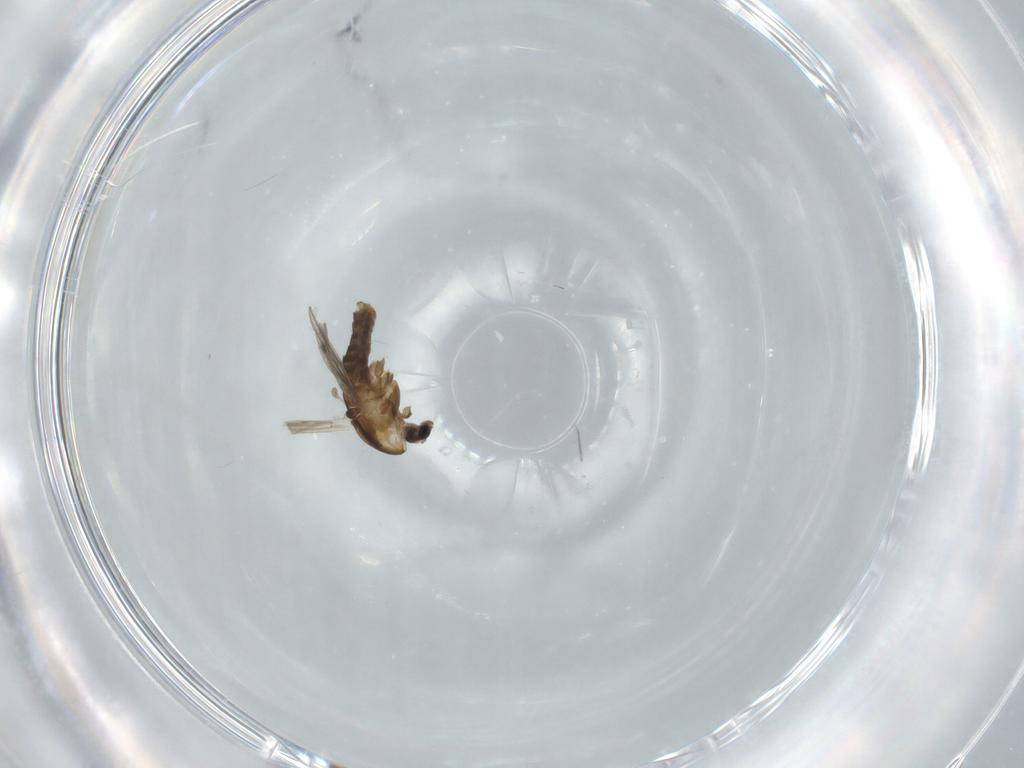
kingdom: Animalia
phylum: Arthropoda
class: Insecta
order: Diptera
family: Chironomidae
